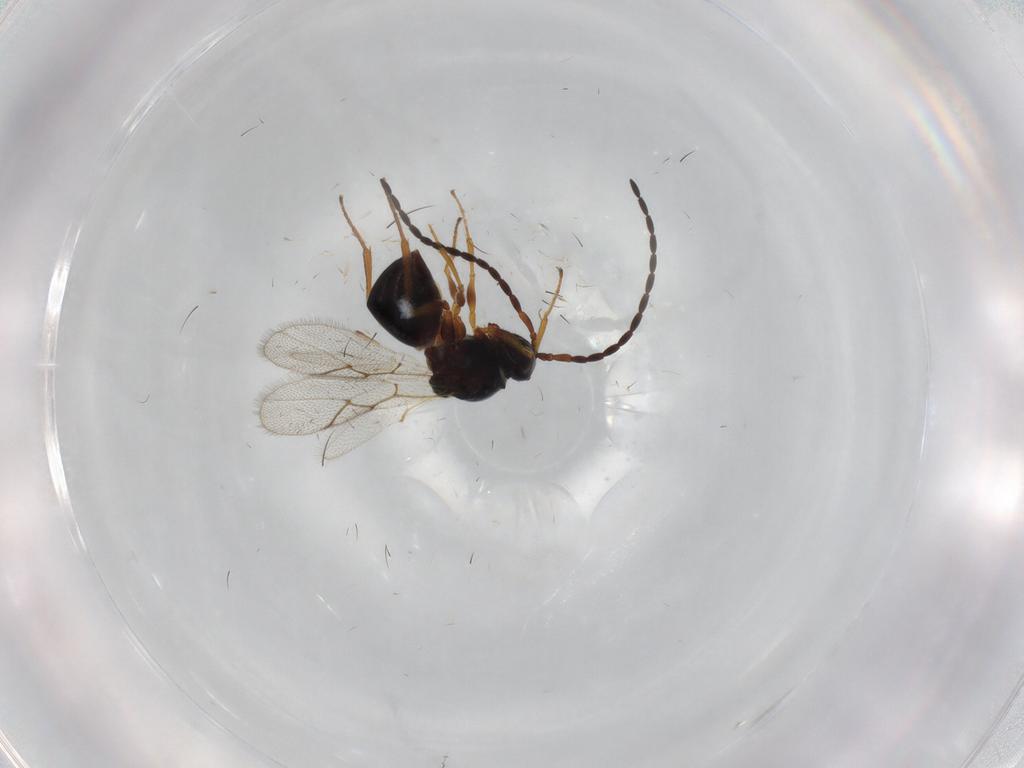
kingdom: Animalia
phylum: Arthropoda
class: Insecta
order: Hymenoptera
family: Figitidae
